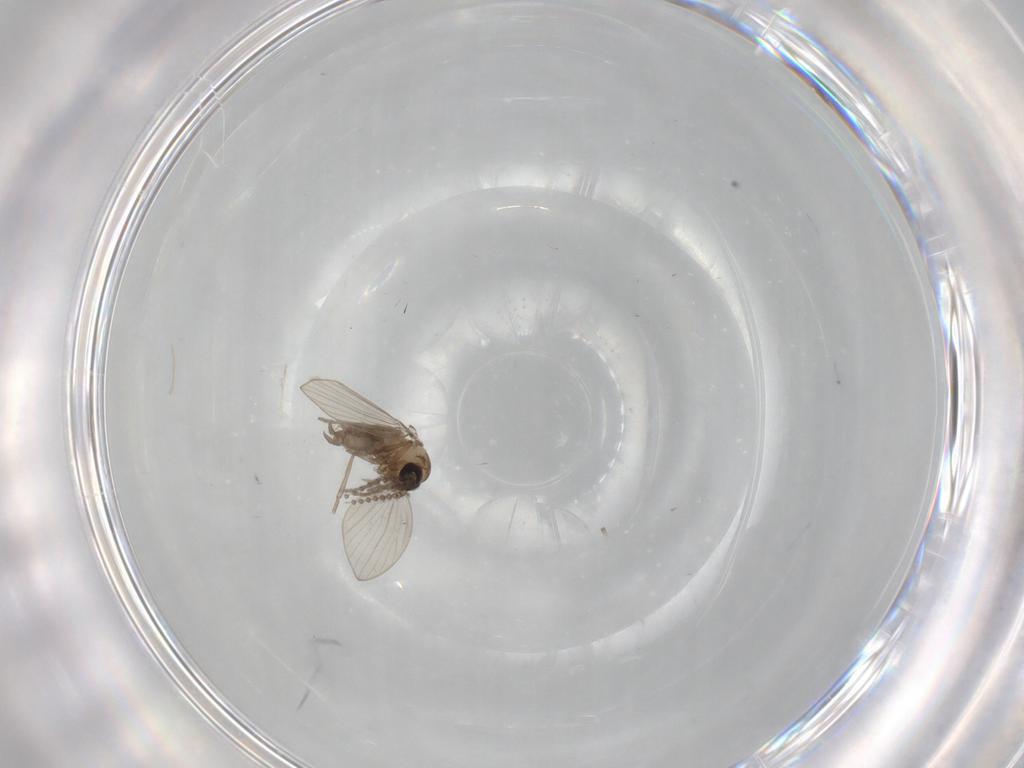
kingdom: Animalia
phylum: Arthropoda
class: Insecta
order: Diptera
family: Psychodidae
